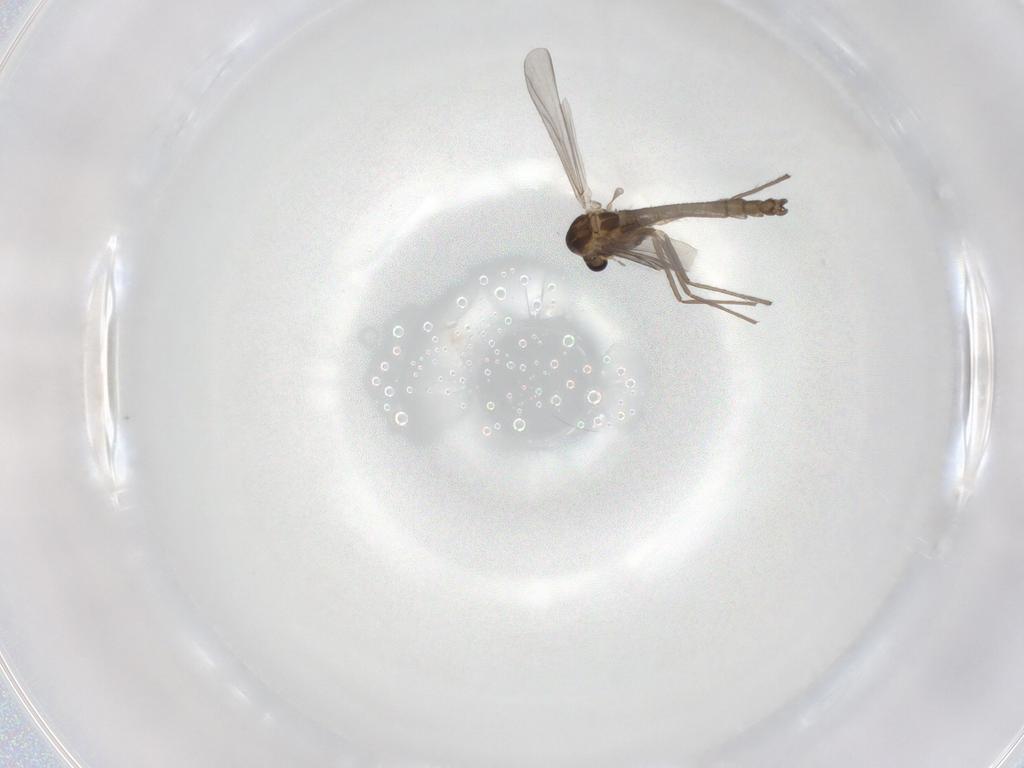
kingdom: Animalia
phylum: Arthropoda
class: Insecta
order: Diptera
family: Chironomidae
